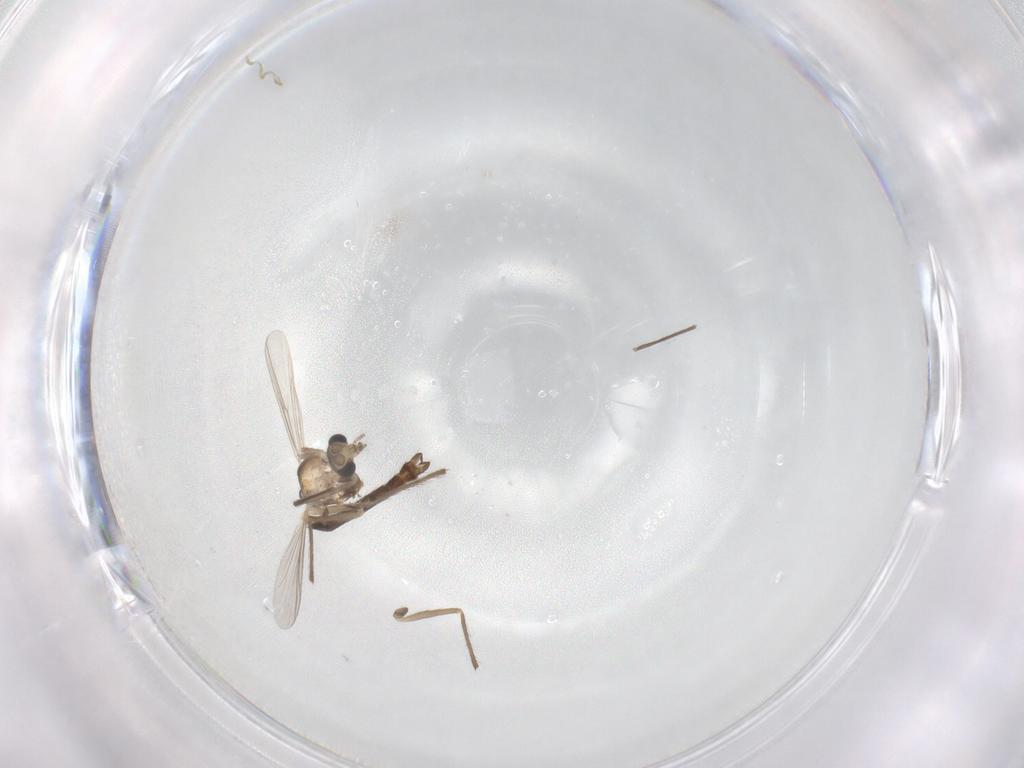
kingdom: Animalia
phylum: Arthropoda
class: Insecta
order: Diptera
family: Chironomidae
